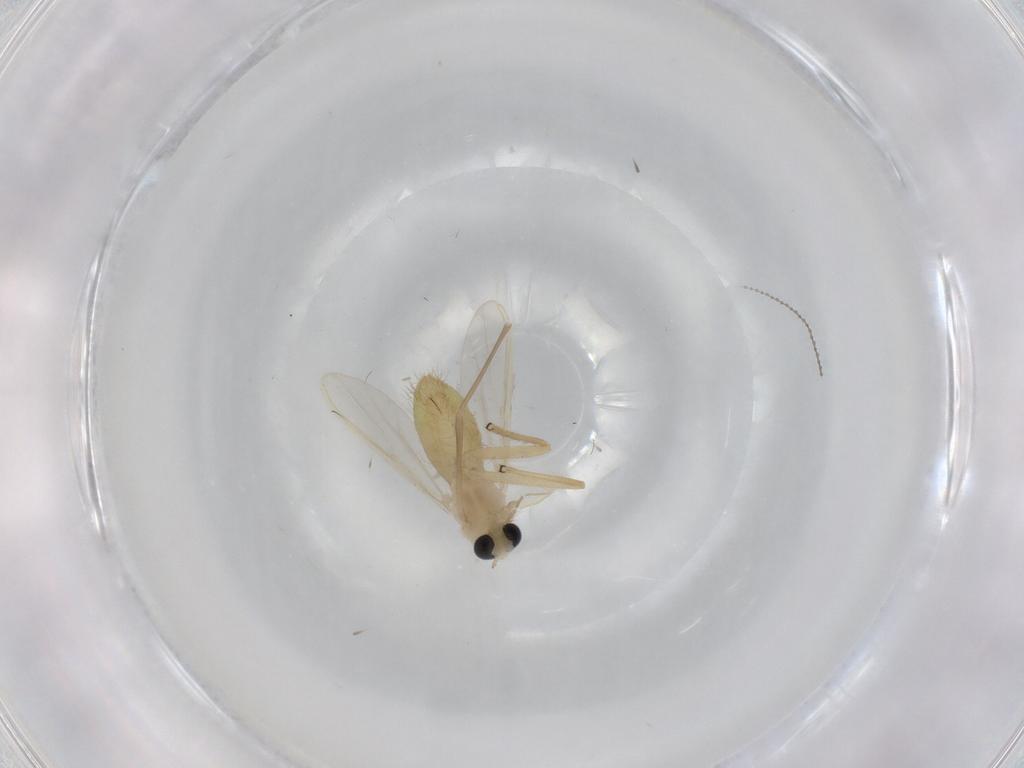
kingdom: Animalia
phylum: Arthropoda
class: Insecta
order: Diptera
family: Chironomidae
